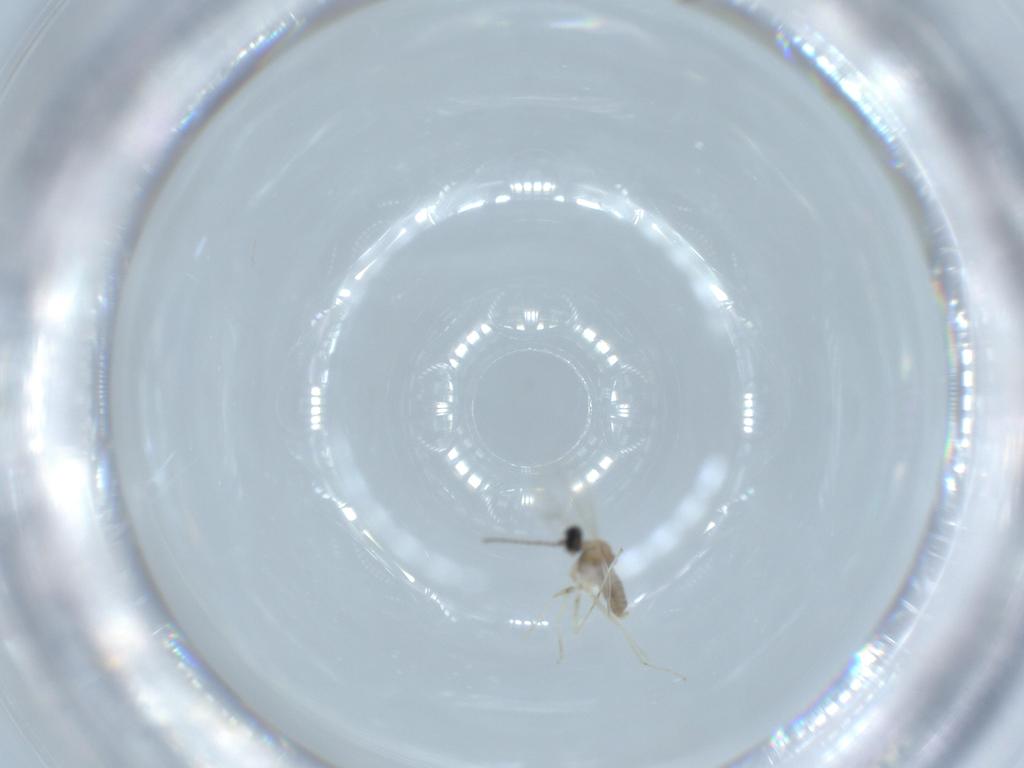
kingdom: Animalia
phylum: Arthropoda
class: Insecta
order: Diptera
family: Cecidomyiidae
